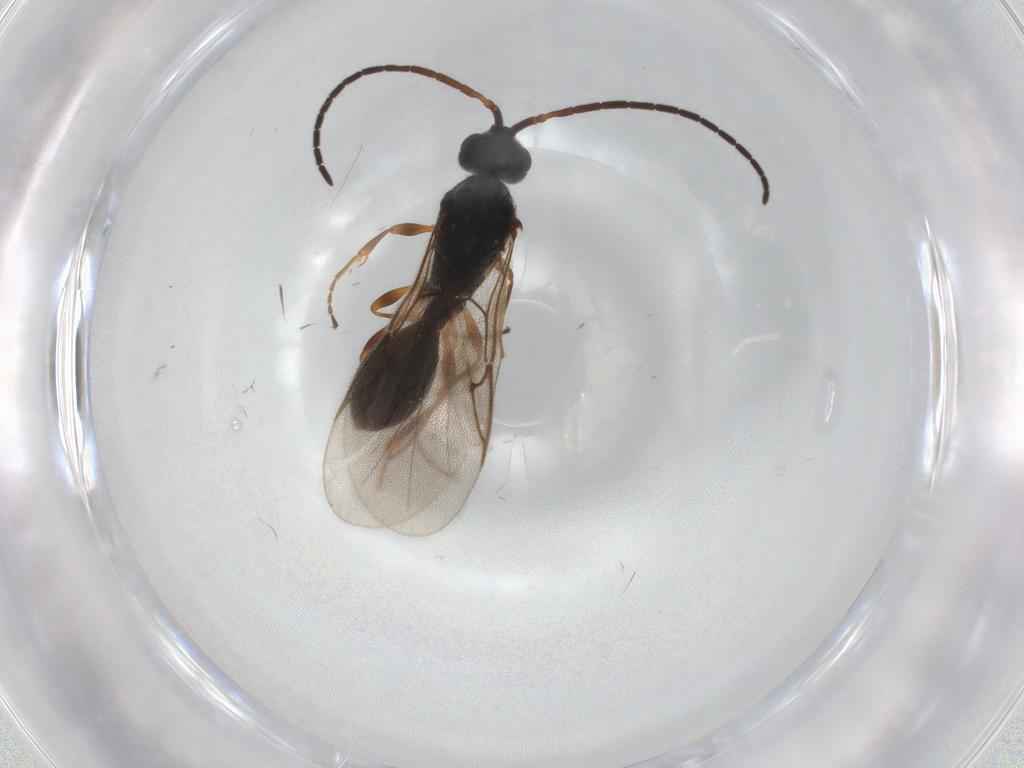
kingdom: Animalia
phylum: Arthropoda
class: Insecta
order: Hymenoptera
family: Diapriidae
